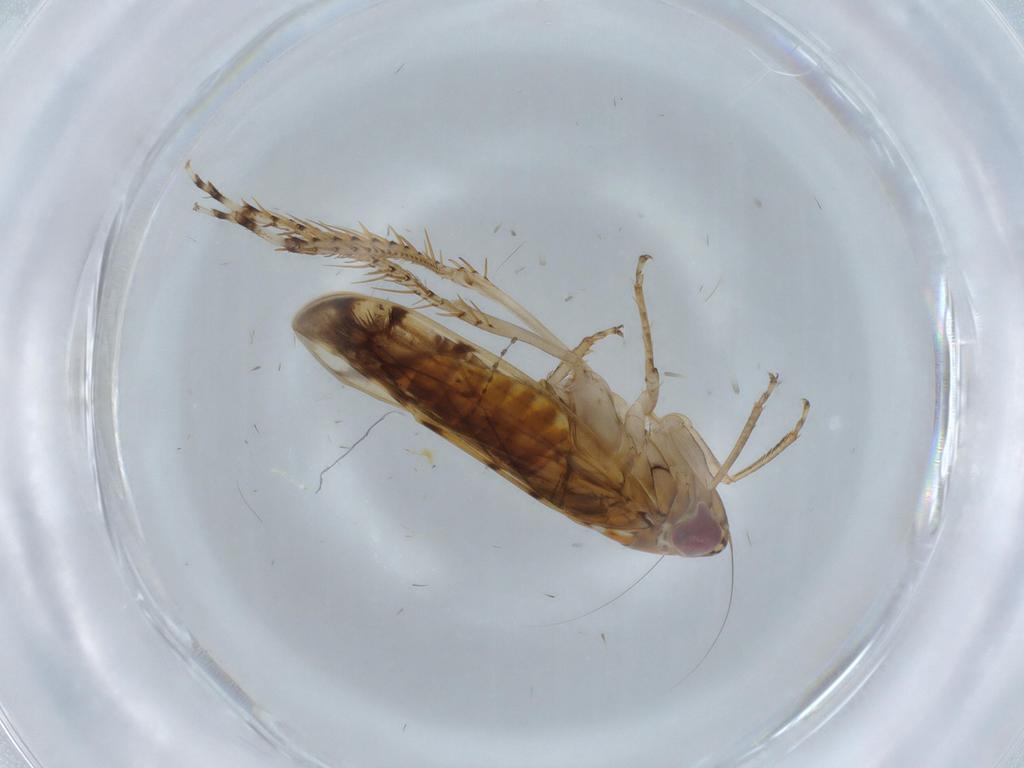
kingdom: Animalia
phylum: Arthropoda
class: Insecta
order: Hemiptera
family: Cicadellidae
